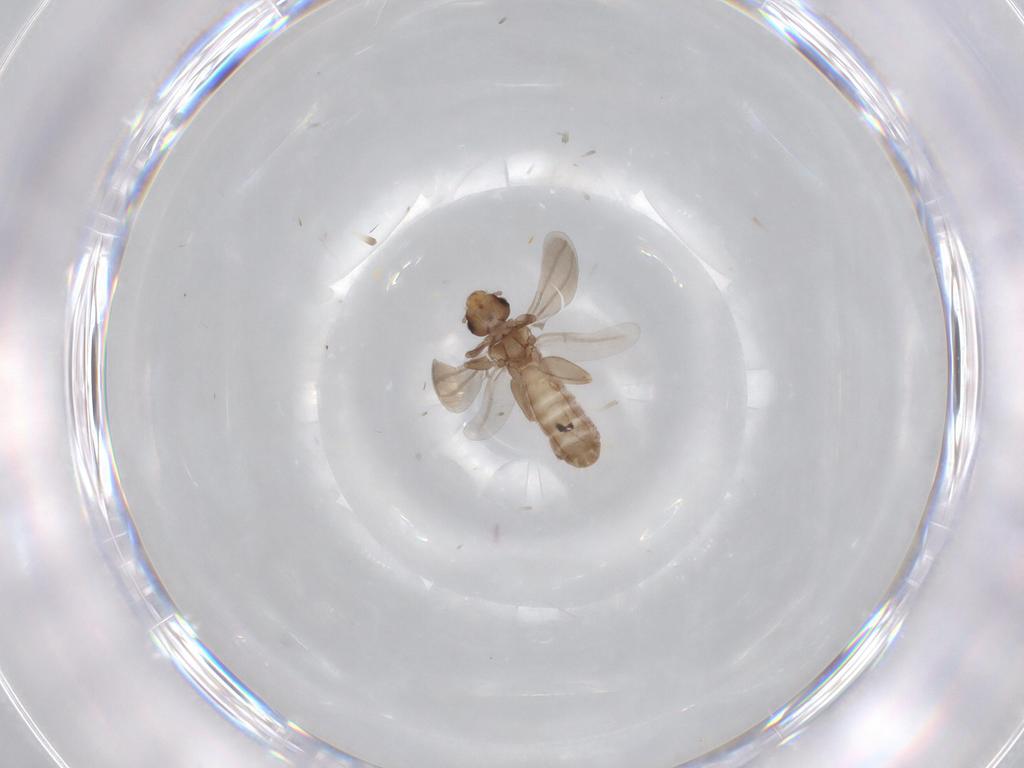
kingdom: Animalia
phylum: Arthropoda
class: Insecta
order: Psocodea
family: Liposcelididae
